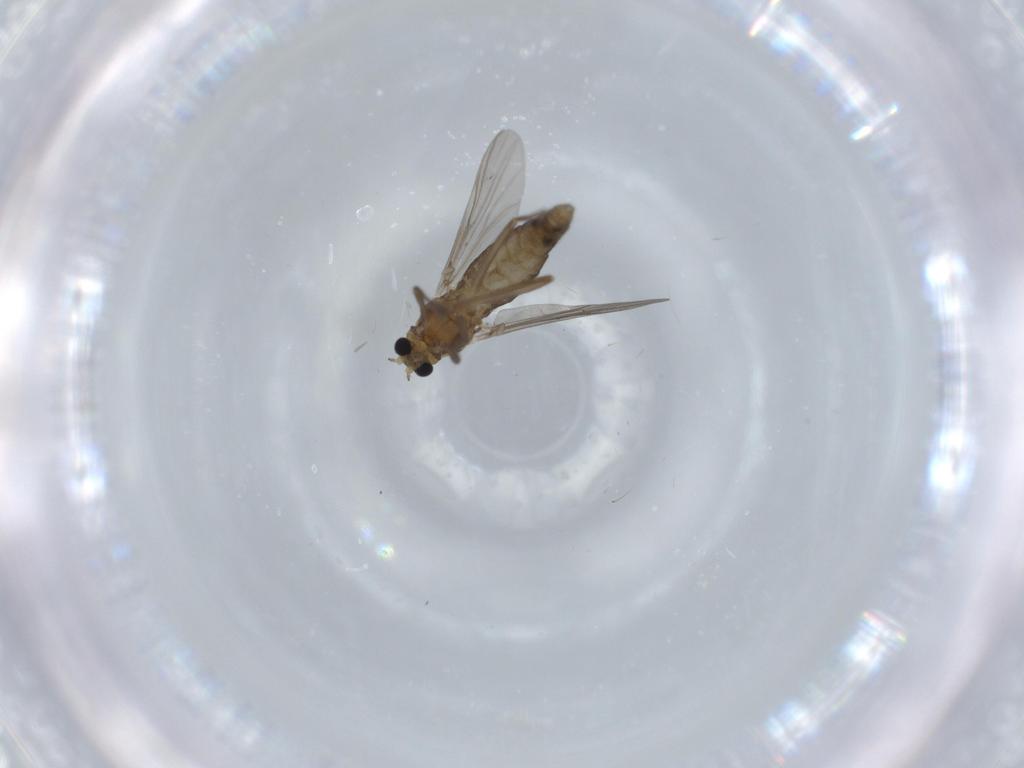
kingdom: Animalia
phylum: Arthropoda
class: Insecta
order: Diptera
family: Chironomidae
